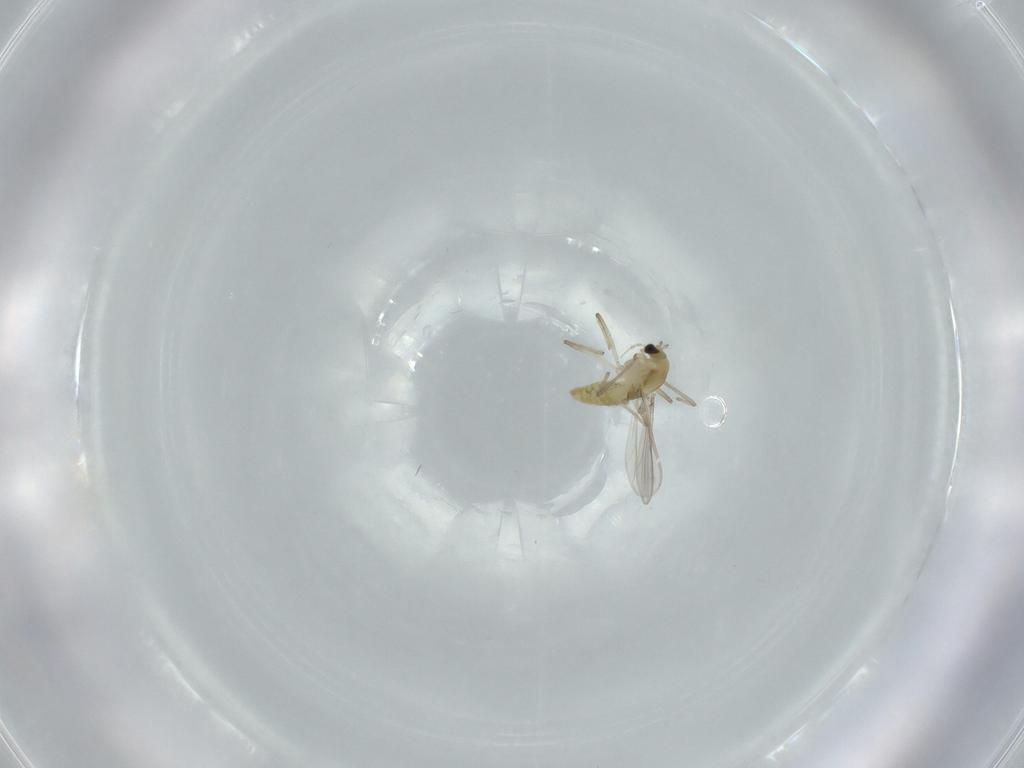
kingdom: Animalia
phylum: Arthropoda
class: Insecta
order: Diptera
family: Chironomidae
